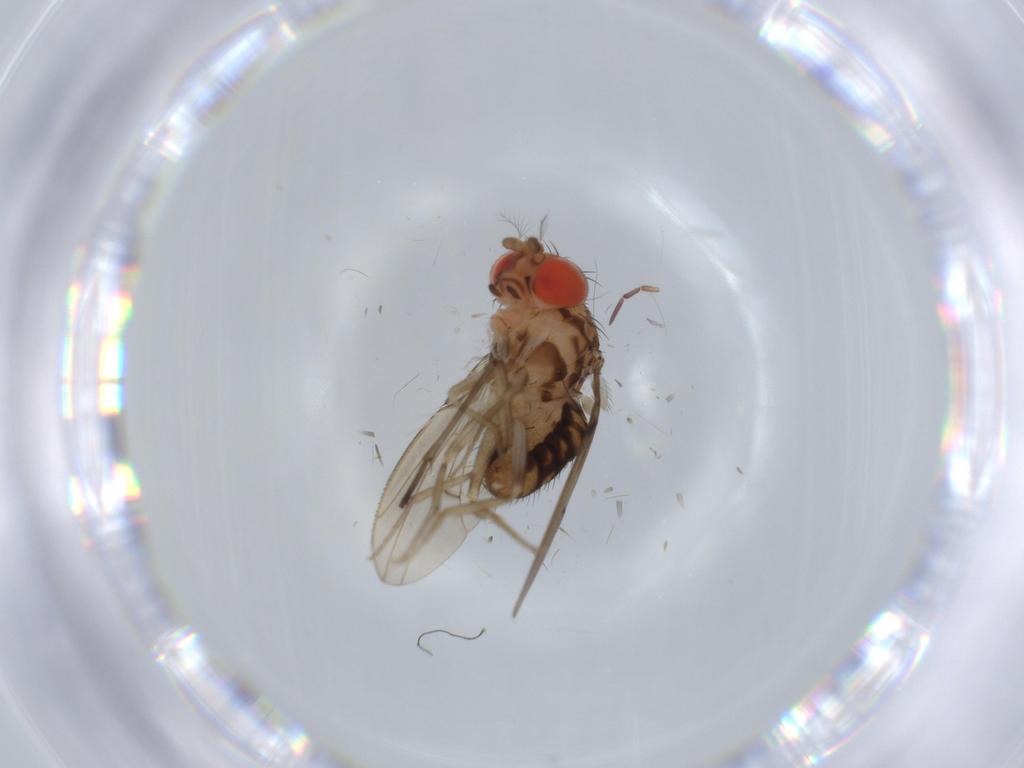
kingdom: Animalia
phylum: Arthropoda
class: Insecta
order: Diptera
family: Drosophilidae
